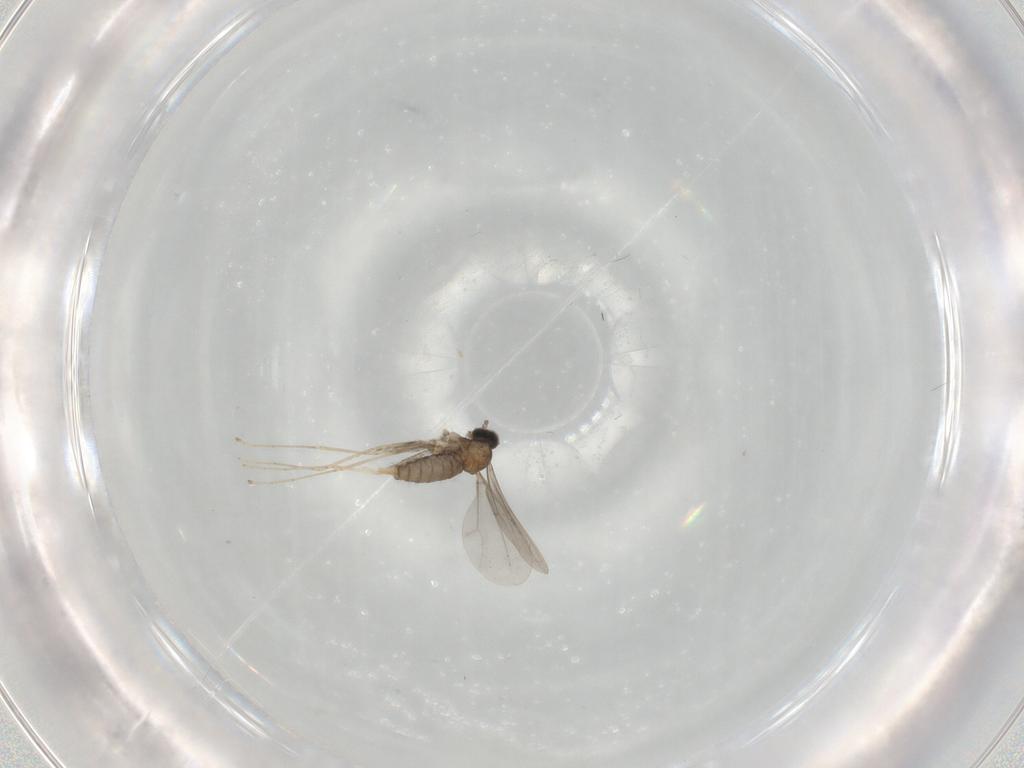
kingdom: Animalia
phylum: Arthropoda
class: Insecta
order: Diptera
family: Cecidomyiidae
